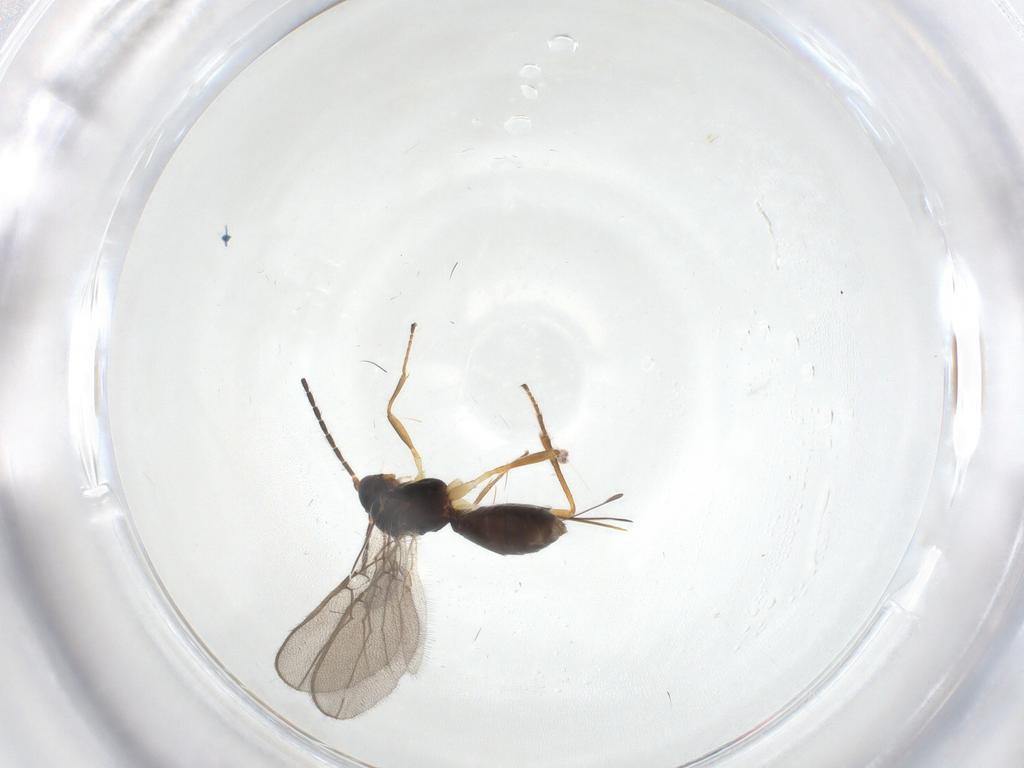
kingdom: Animalia
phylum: Arthropoda
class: Insecta
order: Hymenoptera
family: Braconidae
